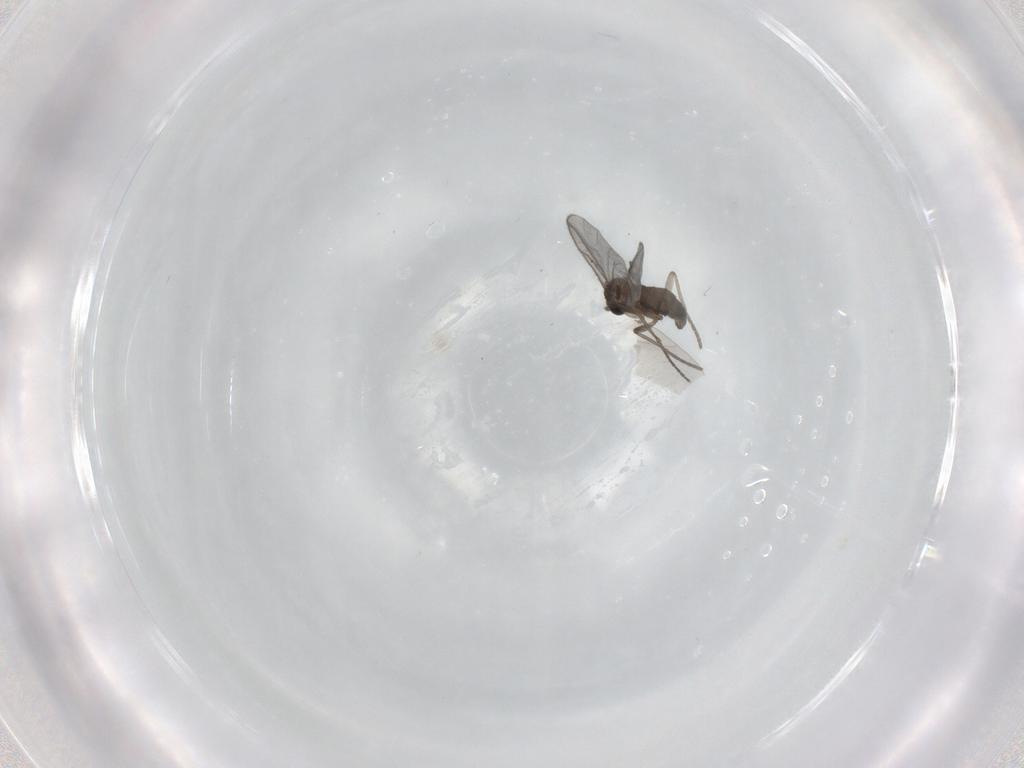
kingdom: Animalia
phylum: Arthropoda
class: Insecta
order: Diptera
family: Sciaridae
